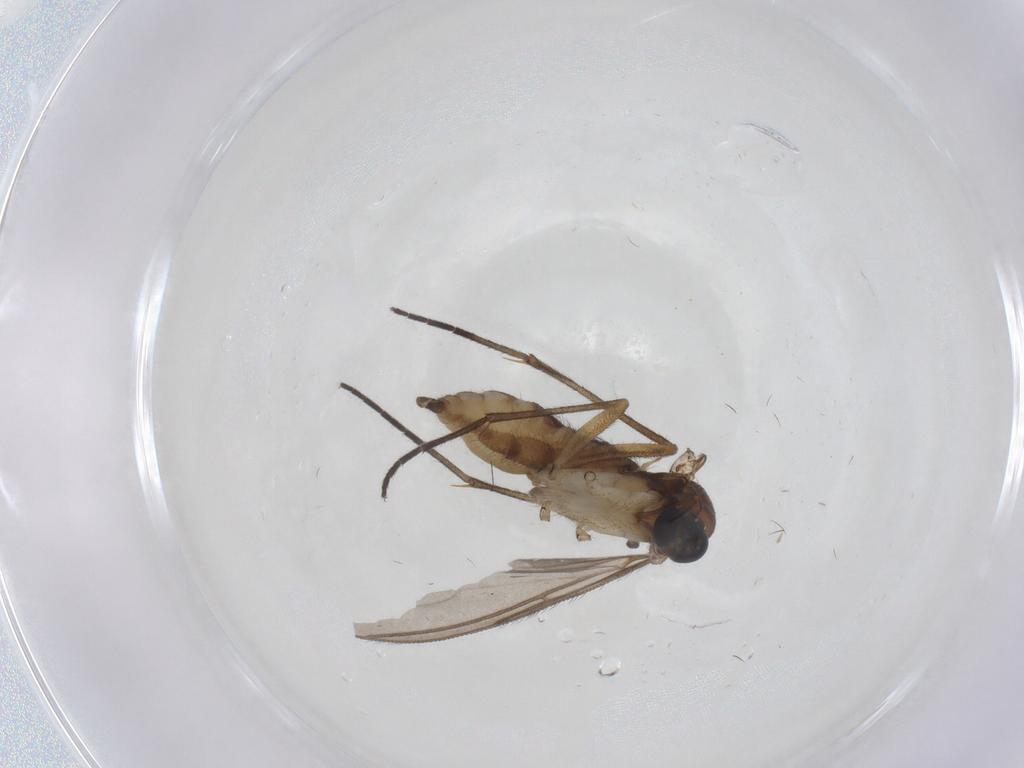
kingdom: Animalia
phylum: Arthropoda
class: Insecta
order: Diptera
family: Sciaridae
